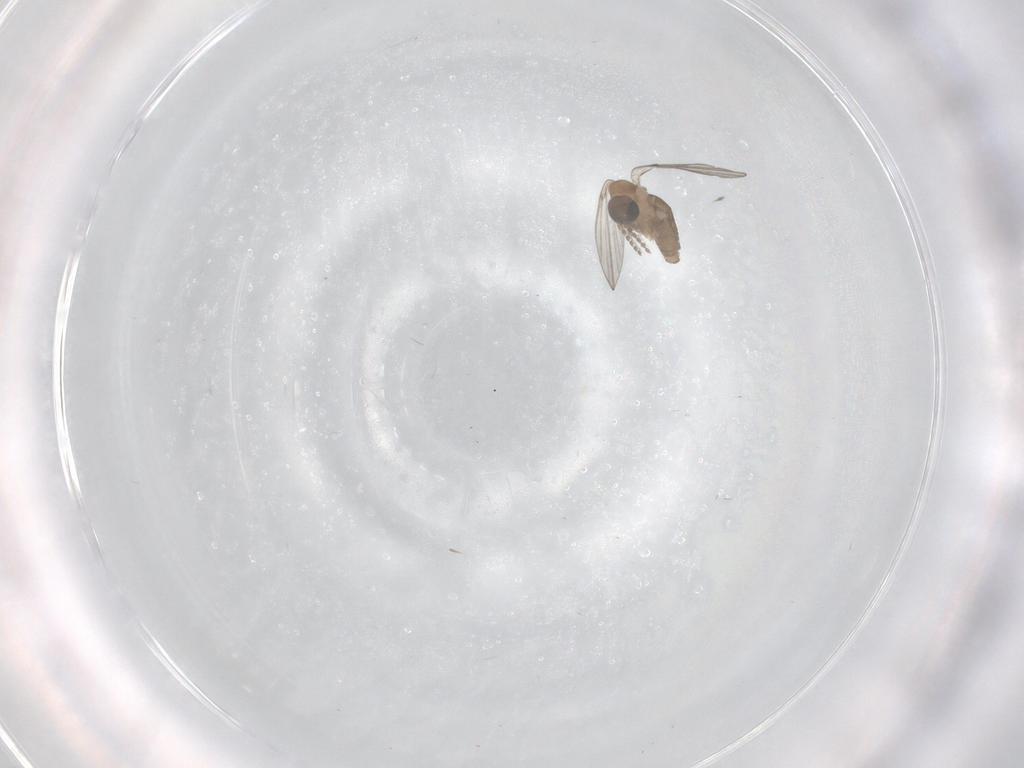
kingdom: Animalia
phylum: Arthropoda
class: Insecta
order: Diptera
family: Psychodidae
